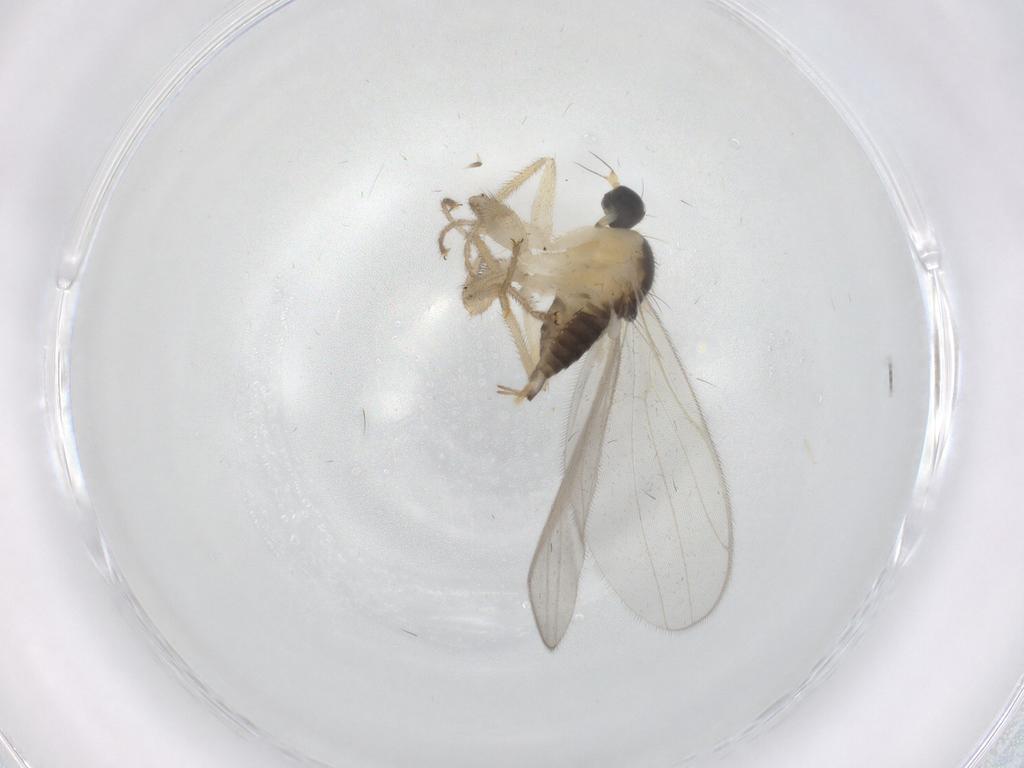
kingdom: Animalia
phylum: Arthropoda
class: Insecta
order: Diptera
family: Hybotidae
